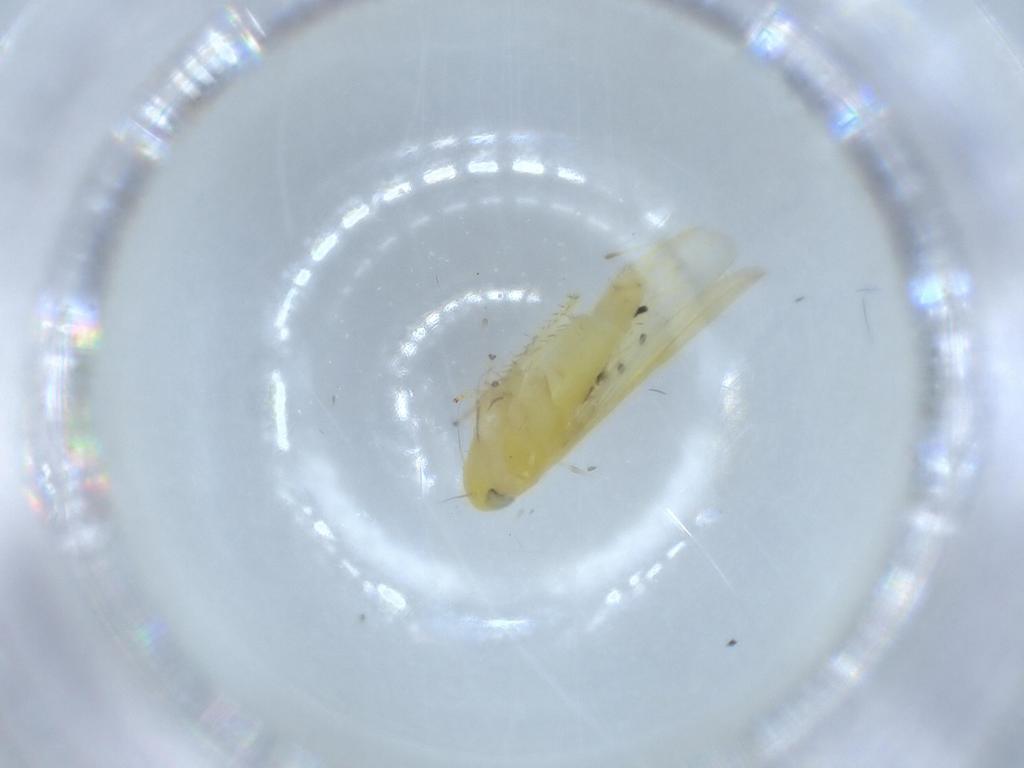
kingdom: Animalia
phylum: Arthropoda
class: Insecta
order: Hemiptera
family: Cicadellidae
